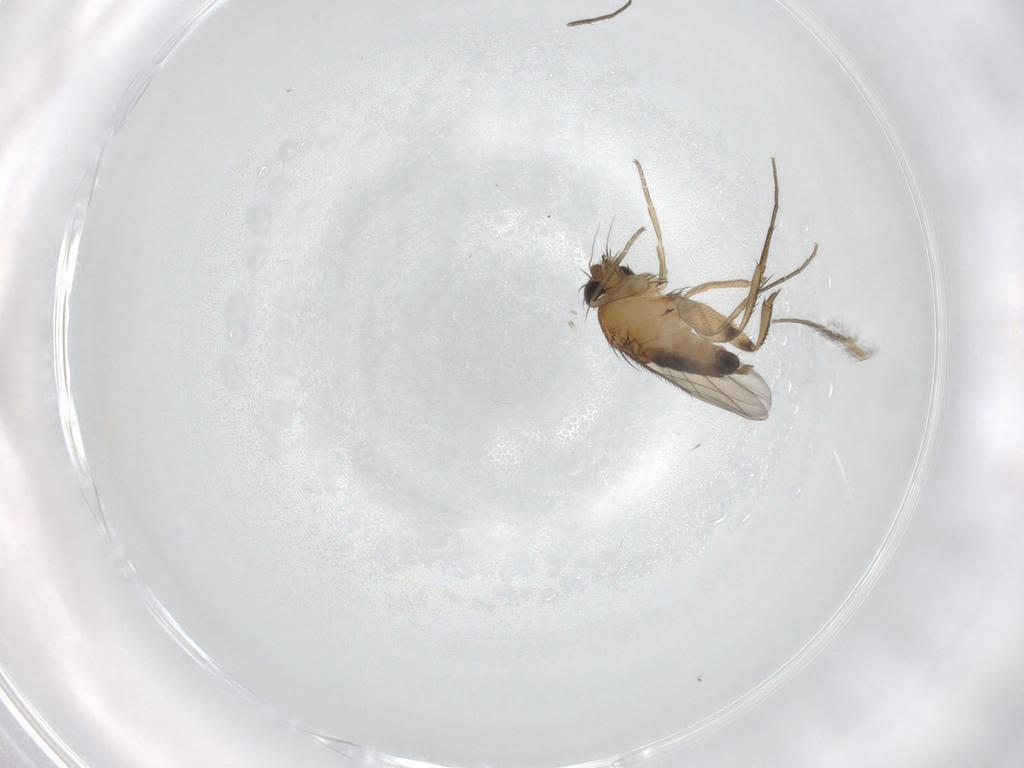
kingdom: Animalia
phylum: Arthropoda
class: Insecta
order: Diptera
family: Phoridae
